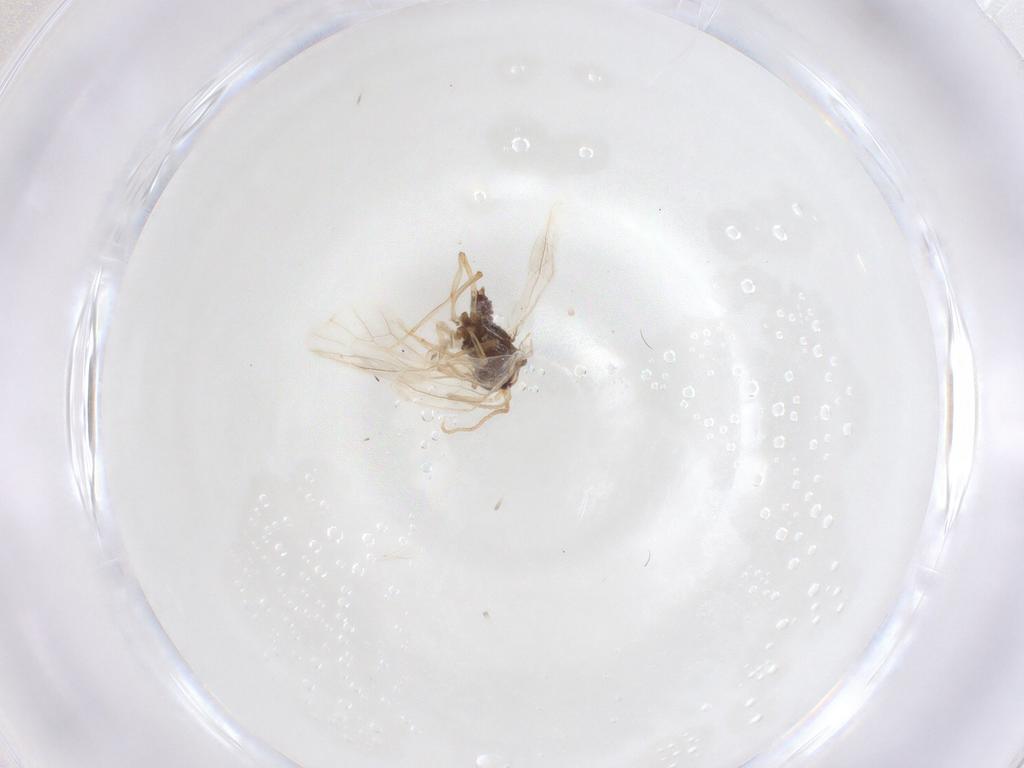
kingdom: Animalia
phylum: Arthropoda
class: Insecta
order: Neuroptera
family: Coniopterygidae
